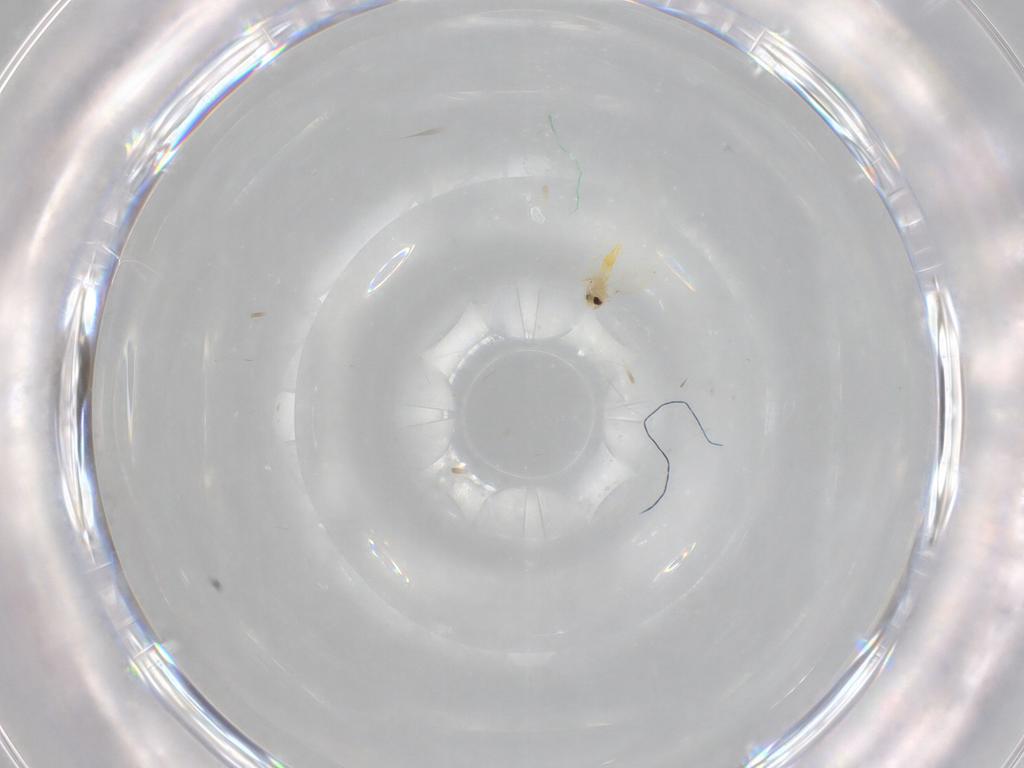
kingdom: Animalia
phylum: Arthropoda
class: Insecta
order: Hemiptera
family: Aleyrodidae
